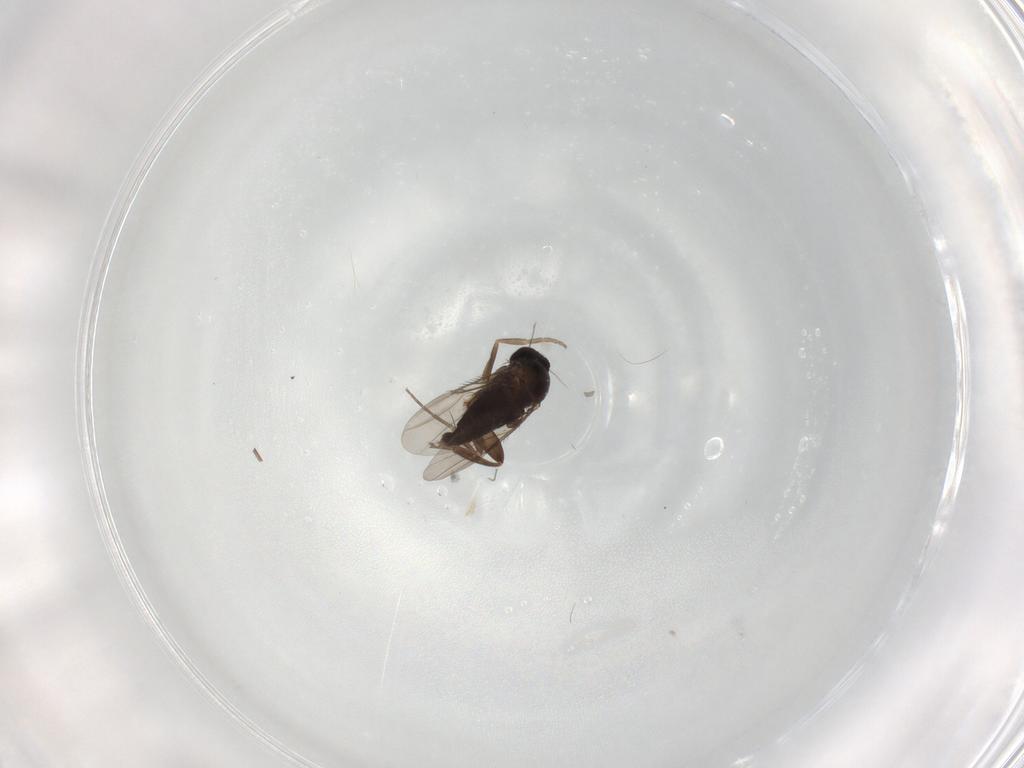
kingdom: Animalia
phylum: Arthropoda
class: Insecta
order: Diptera
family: Phoridae
